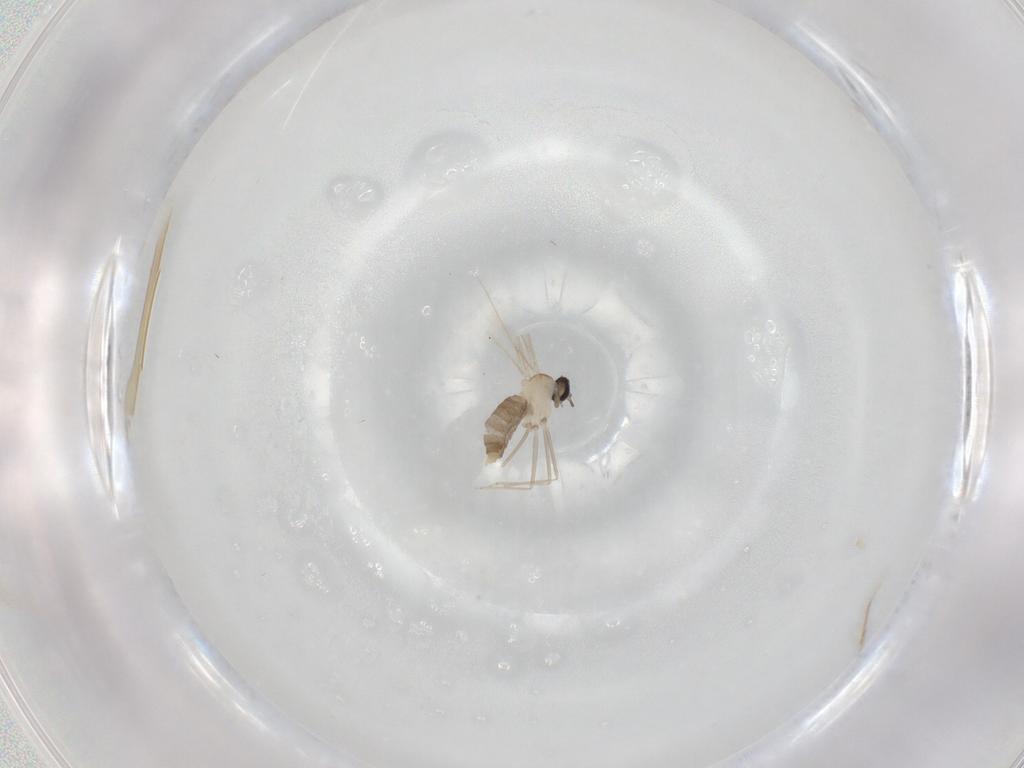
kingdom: Animalia
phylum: Arthropoda
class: Insecta
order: Diptera
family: Cecidomyiidae
